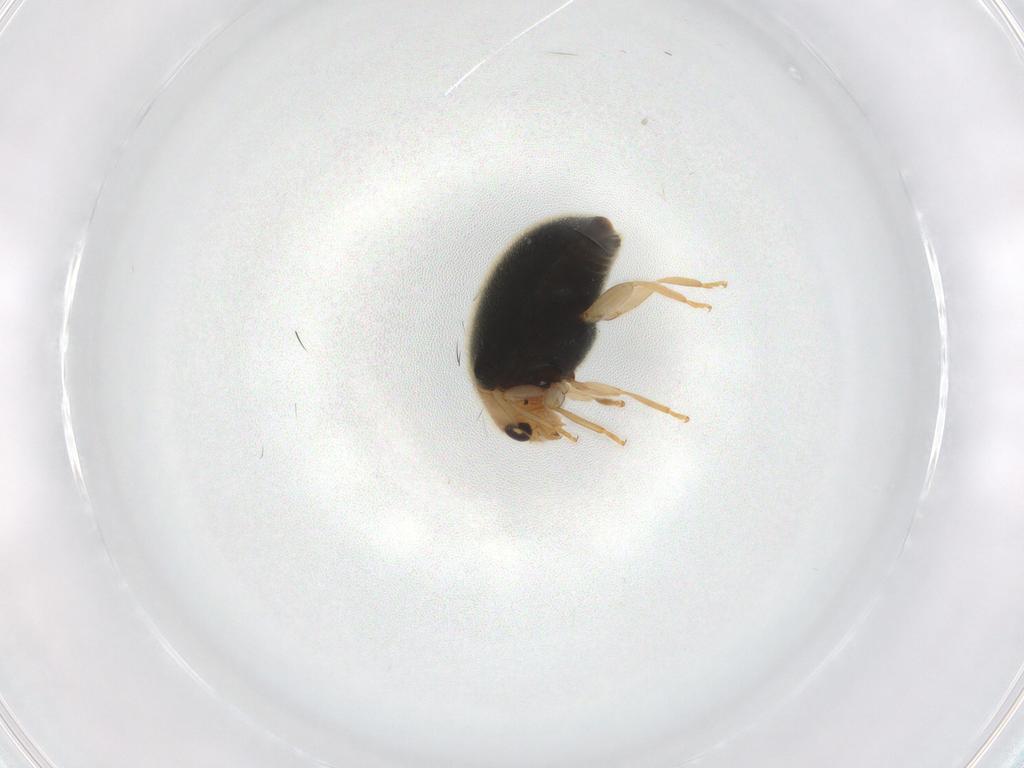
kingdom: Animalia
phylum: Arthropoda
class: Insecta
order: Coleoptera
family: Coccinellidae
